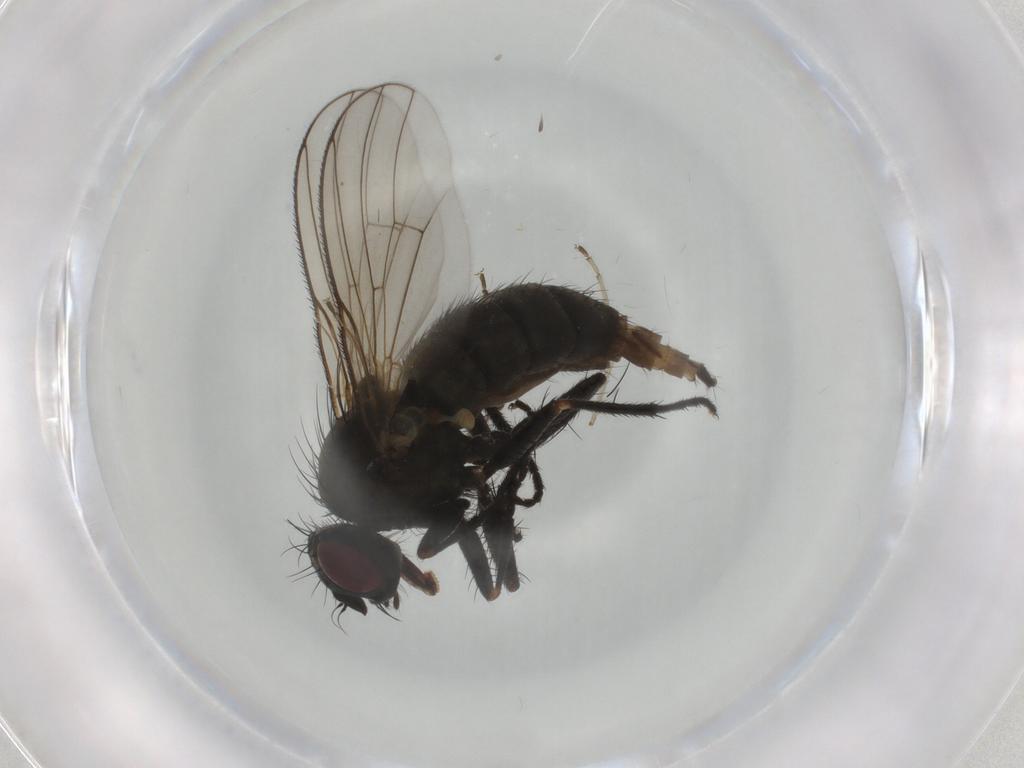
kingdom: Animalia
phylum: Arthropoda
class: Insecta
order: Diptera
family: Muscidae
